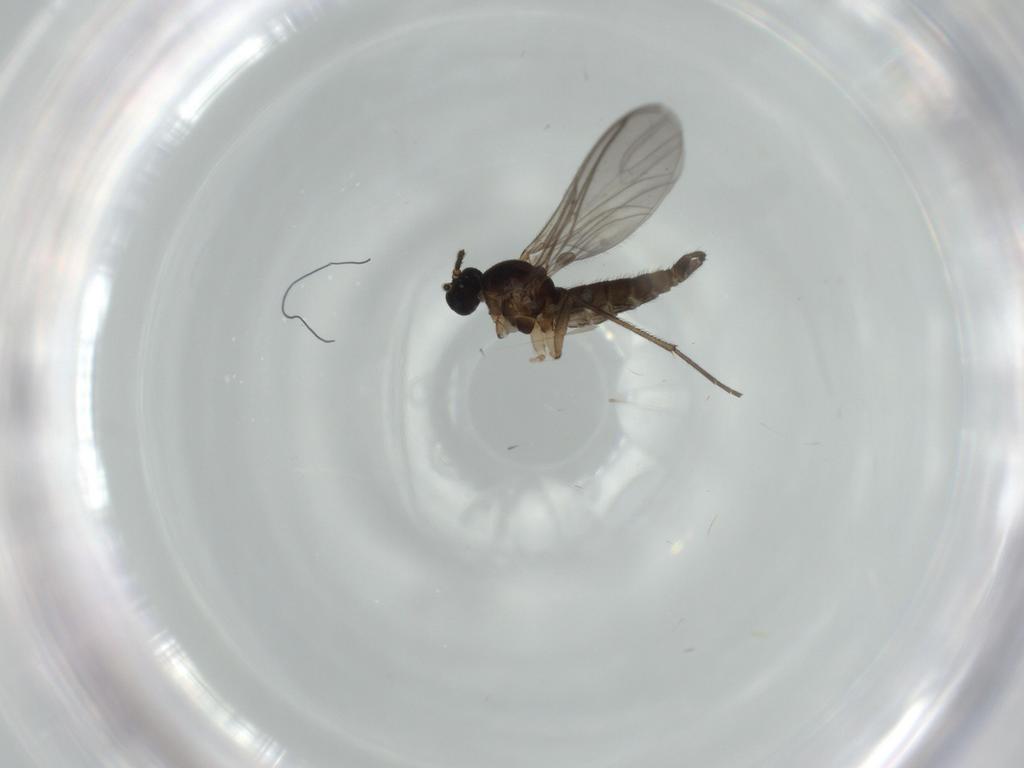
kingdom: Animalia
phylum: Arthropoda
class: Insecta
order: Diptera
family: Sciaridae
